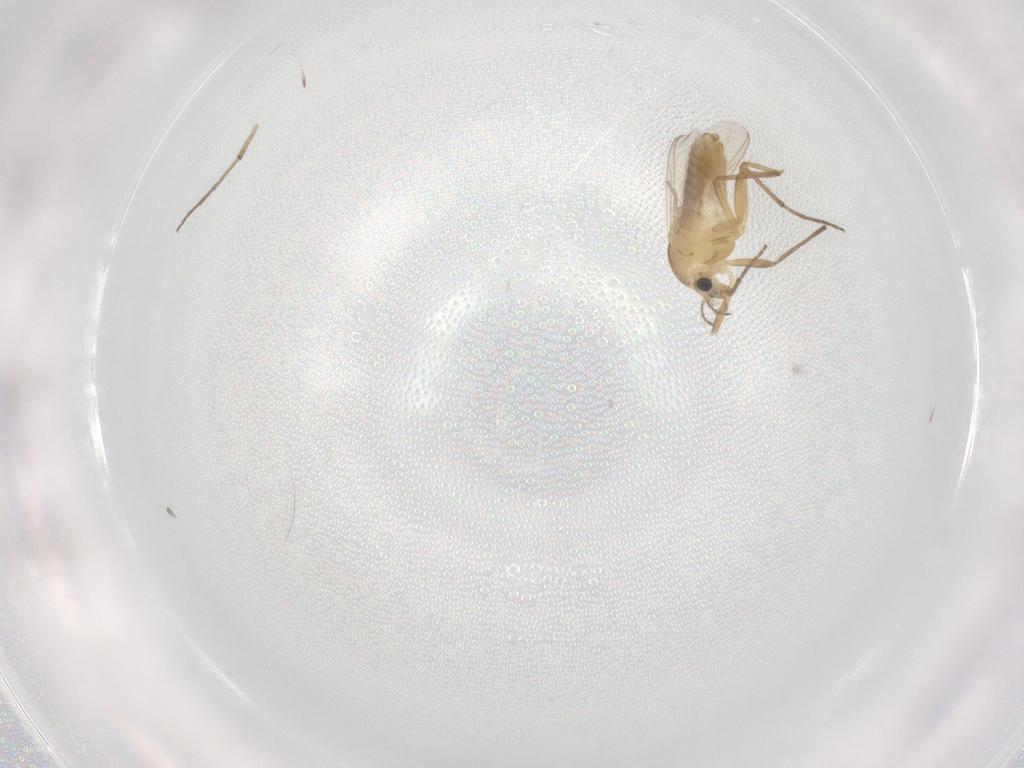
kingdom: Animalia
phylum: Arthropoda
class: Insecta
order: Diptera
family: Chironomidae
